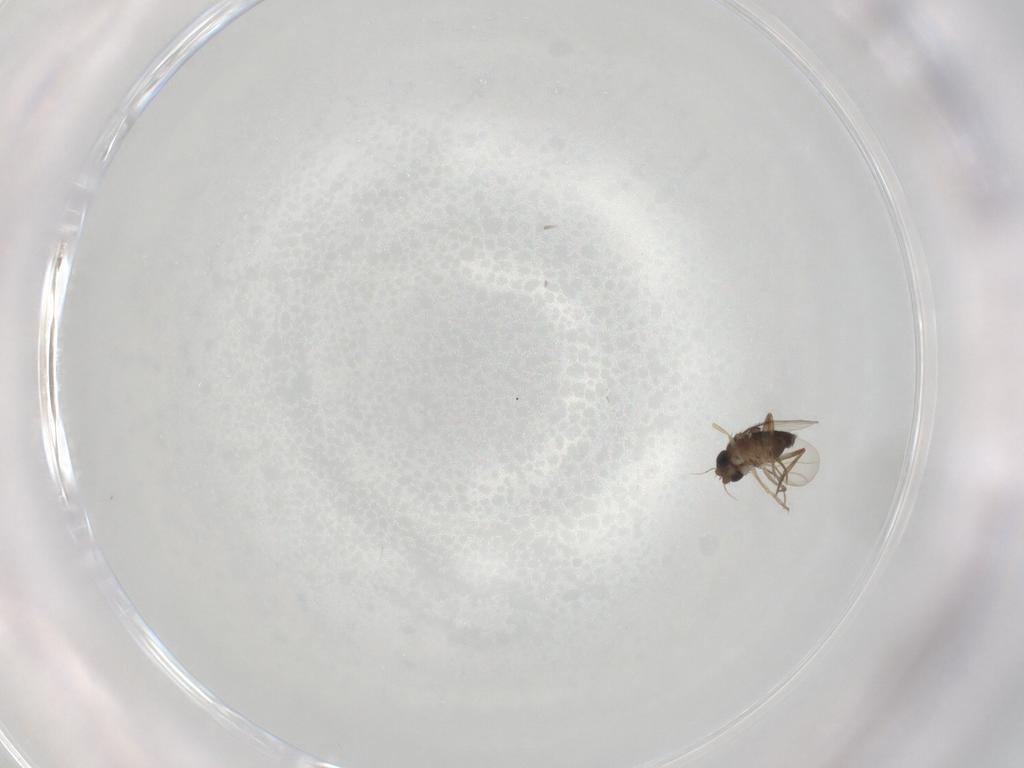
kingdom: Animalia
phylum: Arthropoda
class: Insecta
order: Diptera
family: Phoridae
